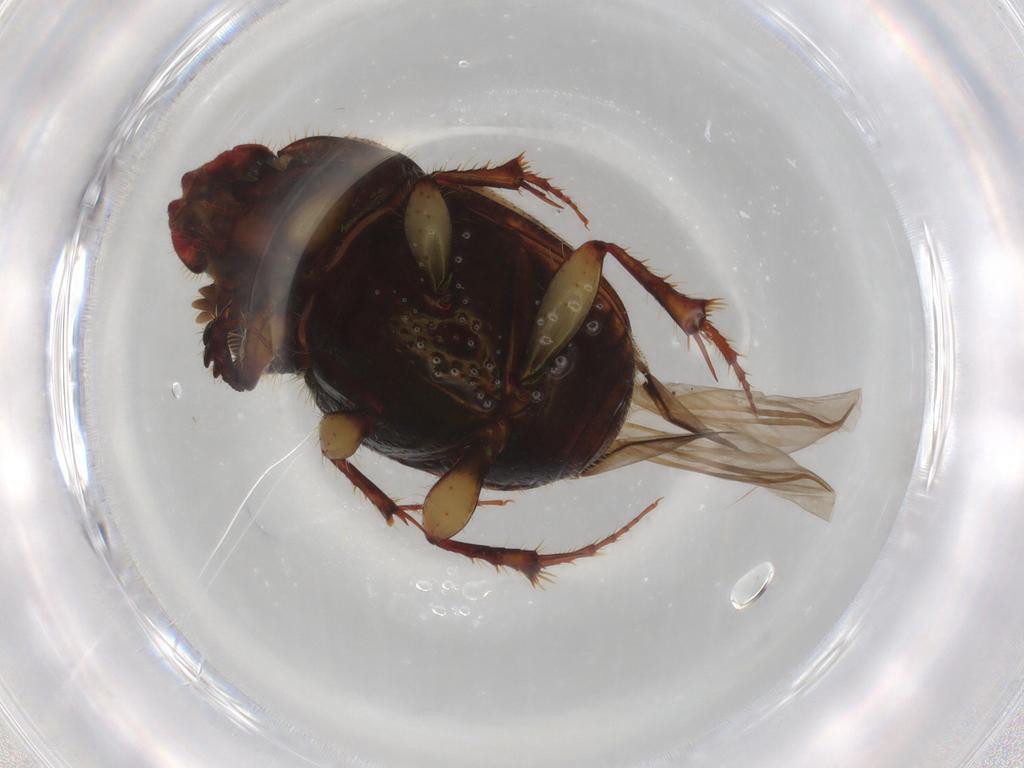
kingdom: Animalia
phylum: Arthropoda
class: Insecta
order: Coleoptera
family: Scarabaeidae
